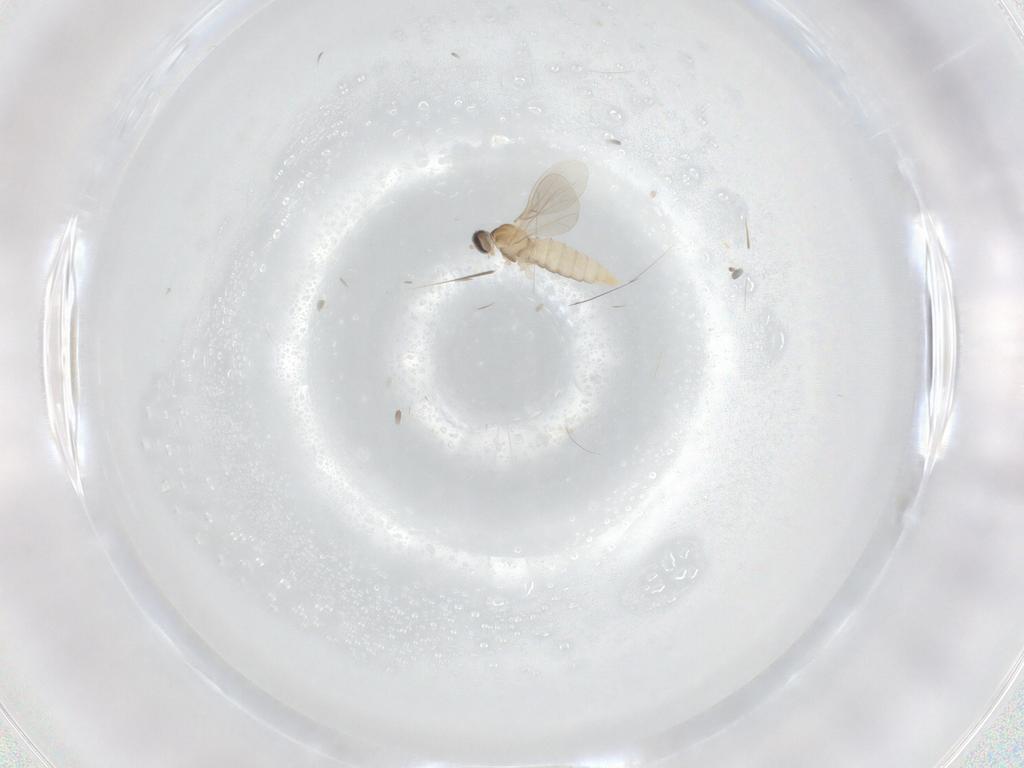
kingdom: Animalia
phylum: Arthropoda
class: Insecta
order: Diptera
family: Cecidomyiidae
